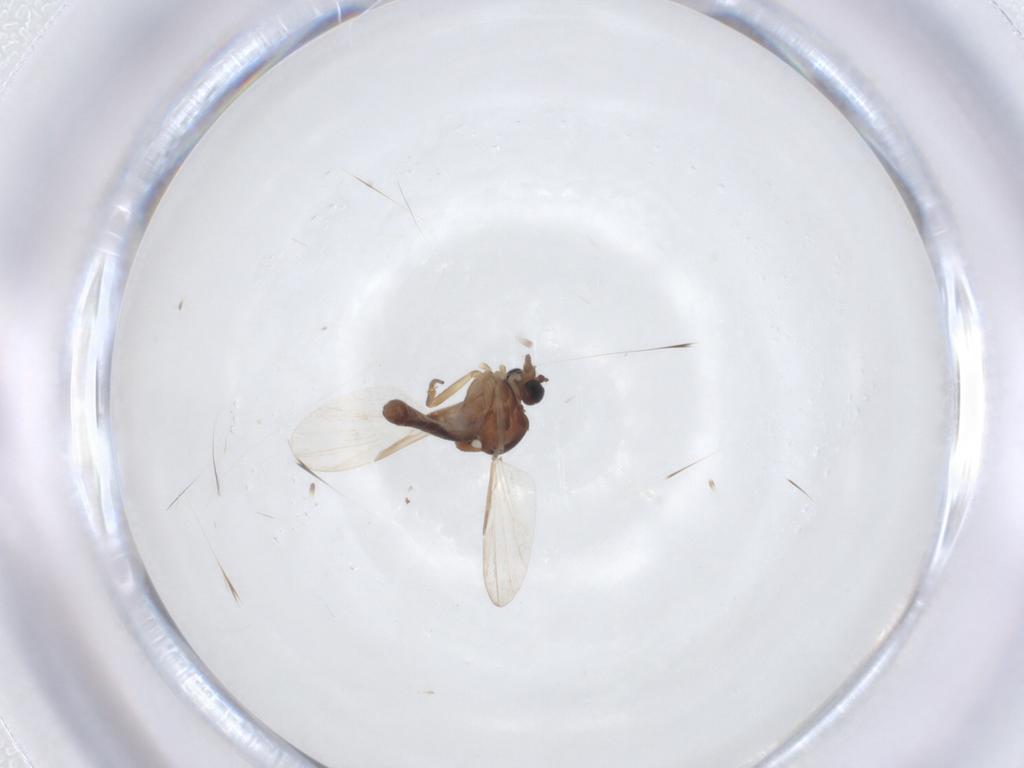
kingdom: Animalia
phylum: Arthropoda
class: Insecta
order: Diptera
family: Ceratopogonidae
